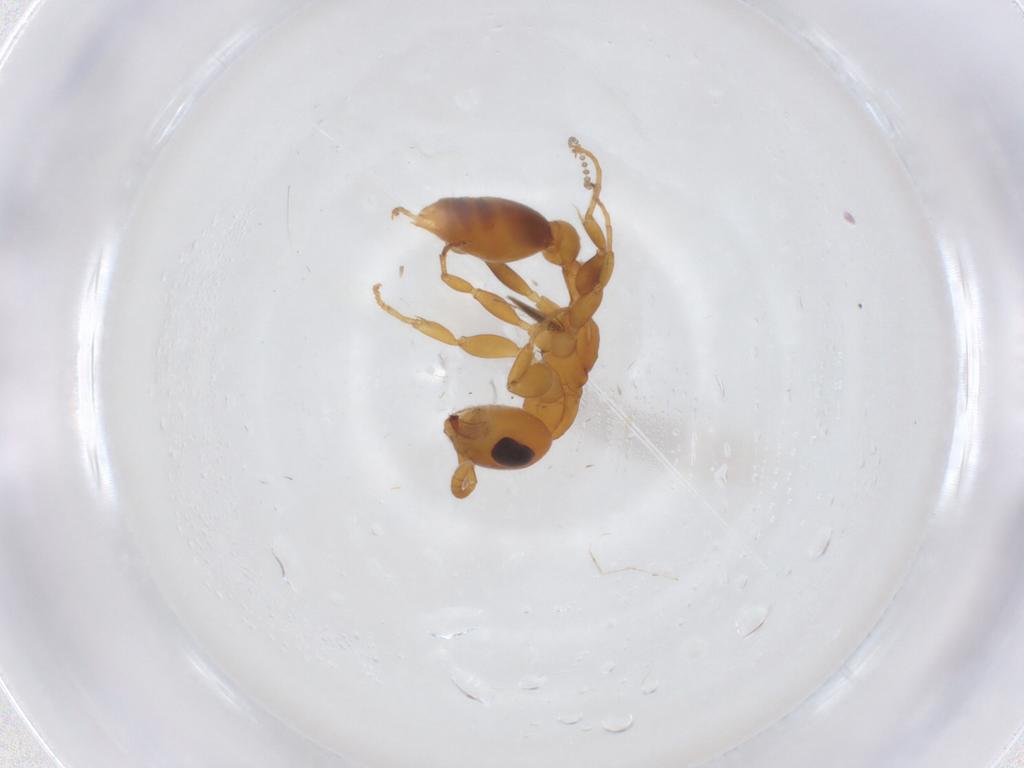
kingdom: Animalia
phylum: Arthropoda
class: Insecta
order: Hymenoptera
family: Formicidae
